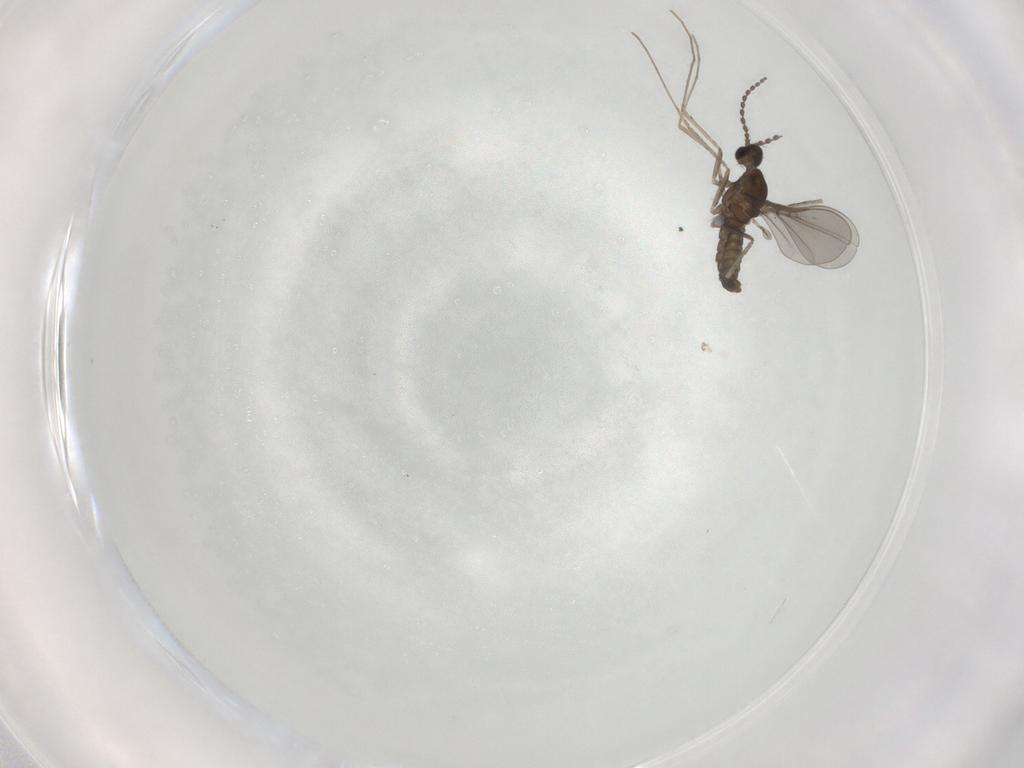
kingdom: Animalia
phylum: Arthropoda
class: Insecta
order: Diptera
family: Cecidomyiidae
